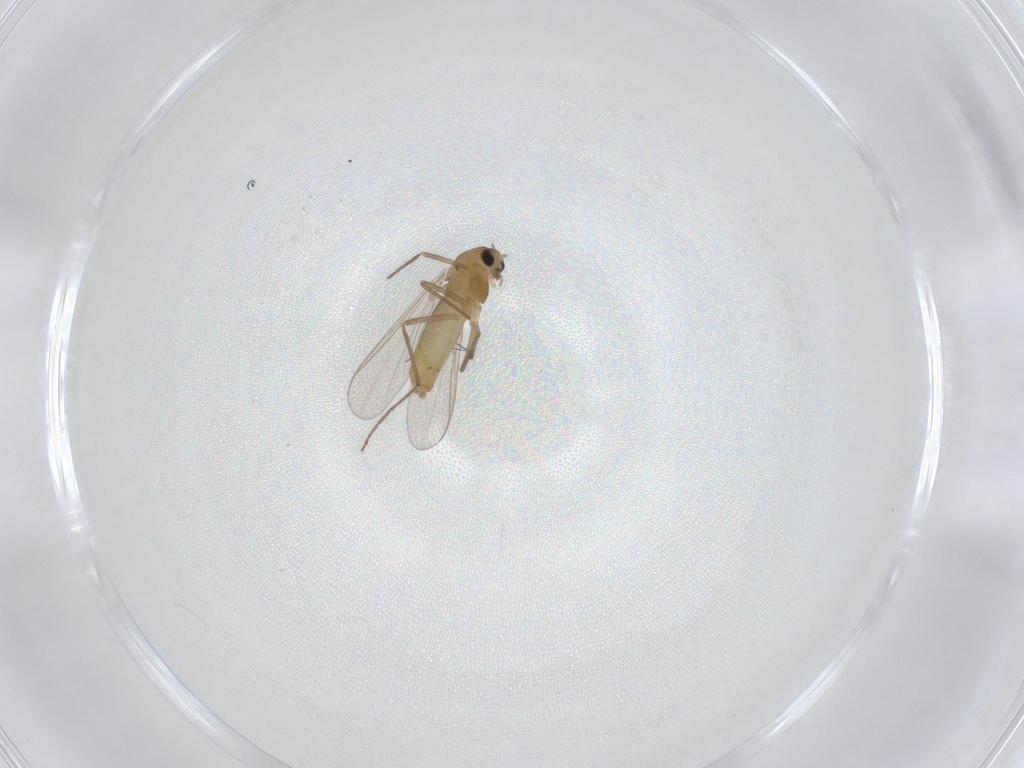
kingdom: Animalia
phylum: Arthropoda
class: Insecta
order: Diptera
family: Chironomidae
